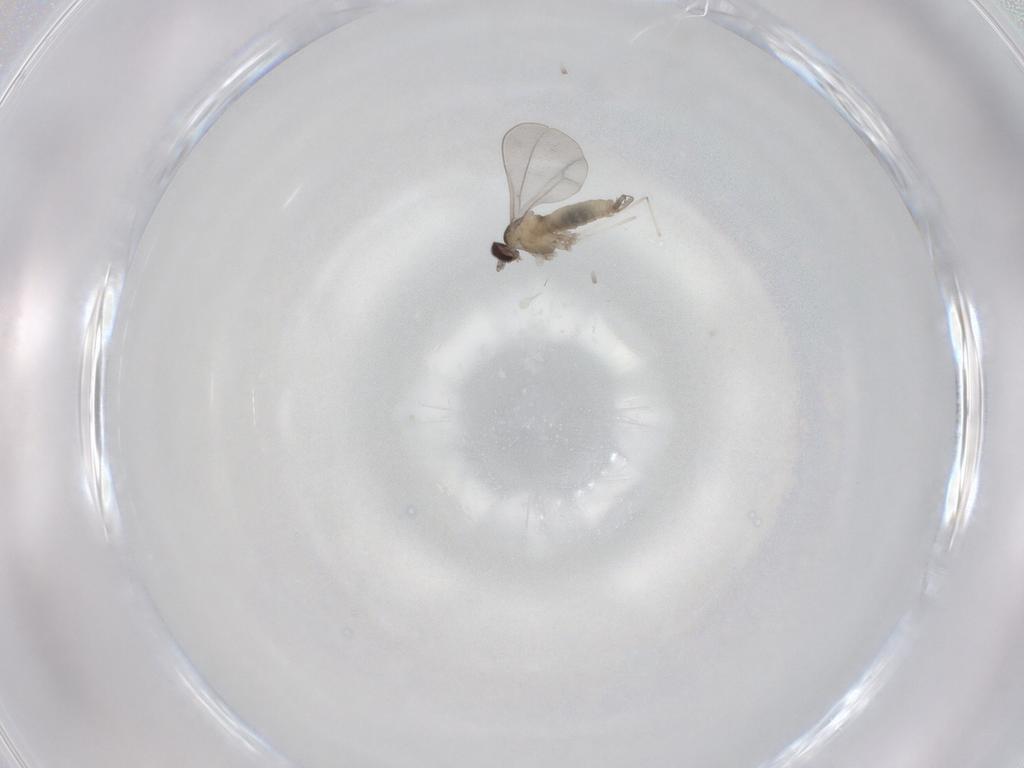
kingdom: Animalia
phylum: Arthropoda
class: Insecta
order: Diptera
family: Cecidomyiidae
